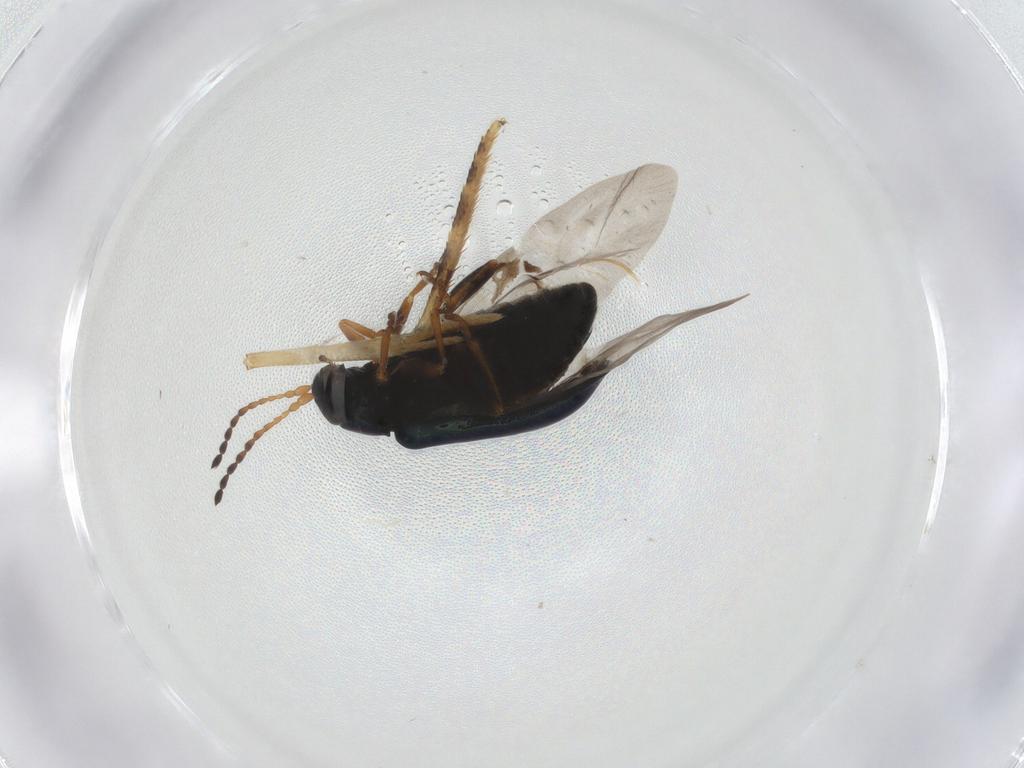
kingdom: Animalia
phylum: Arthropoda
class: Insecta
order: Coleoptera
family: Chrysomelidae
